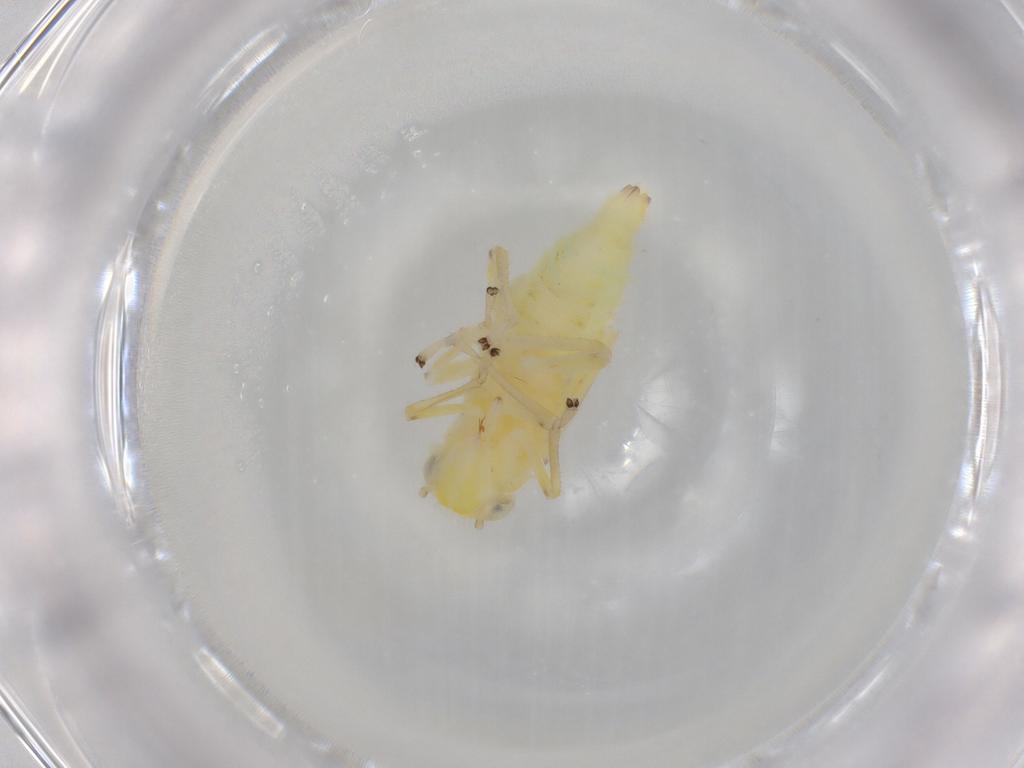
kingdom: Animalia
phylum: Arthropoda
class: Insecta
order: Hemiptera
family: Cicadellidae
